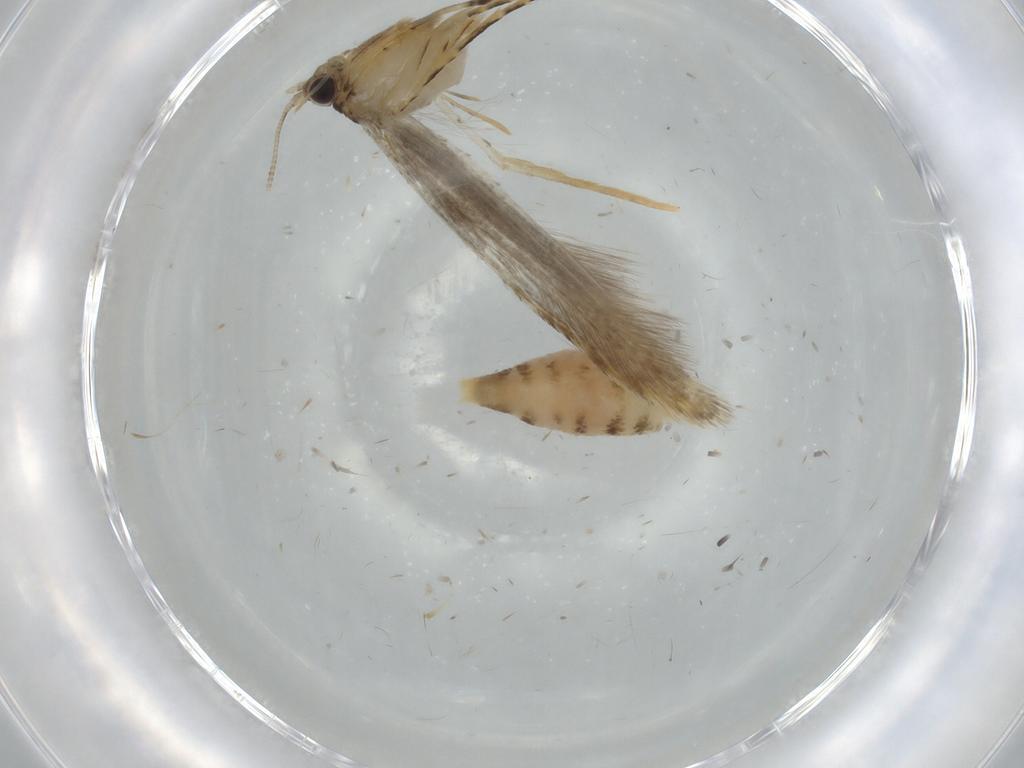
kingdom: Animalia
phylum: Arthropoda
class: Insecta
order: Lepidoptera
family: Tineidae
